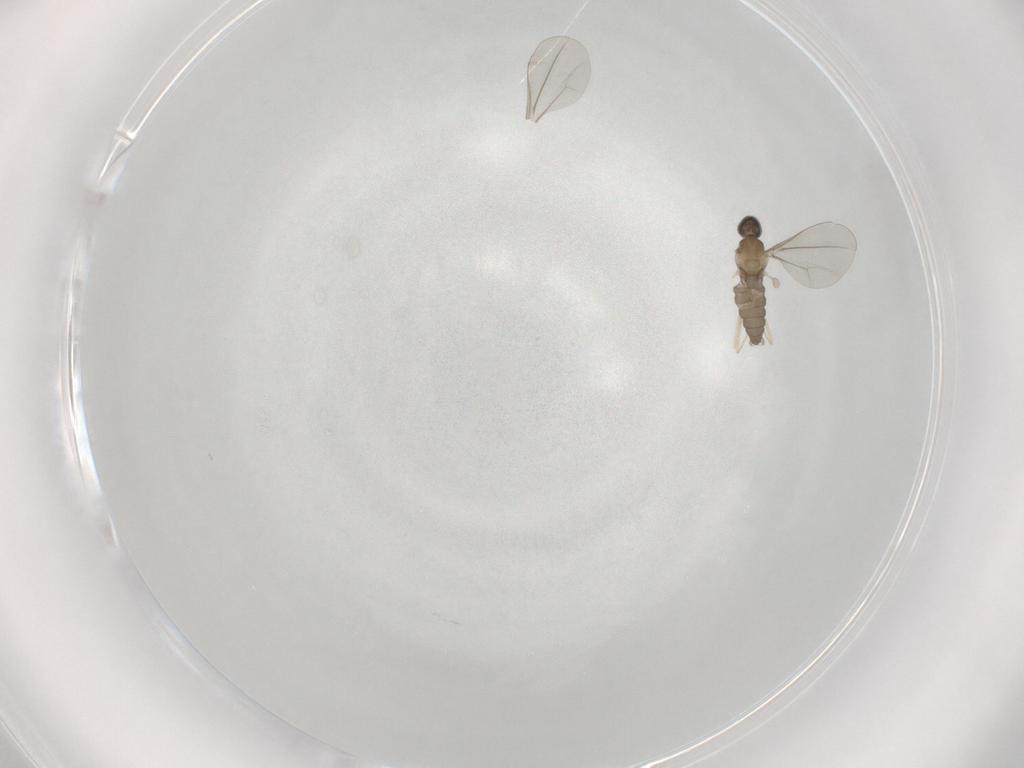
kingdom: Animalia
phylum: Arthropoda
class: Insecta
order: Diptera
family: Cecidomyiidae
